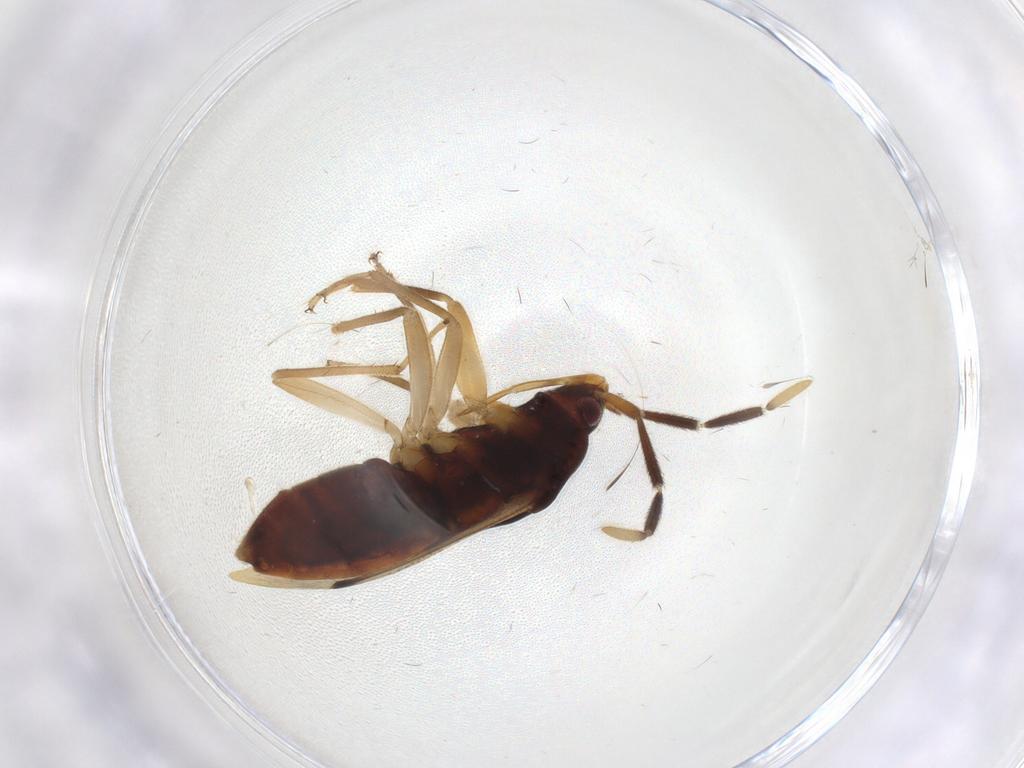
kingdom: Animalia
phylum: Arthropoda
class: Insecta
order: Hemiptera
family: Rhyparochromidae
